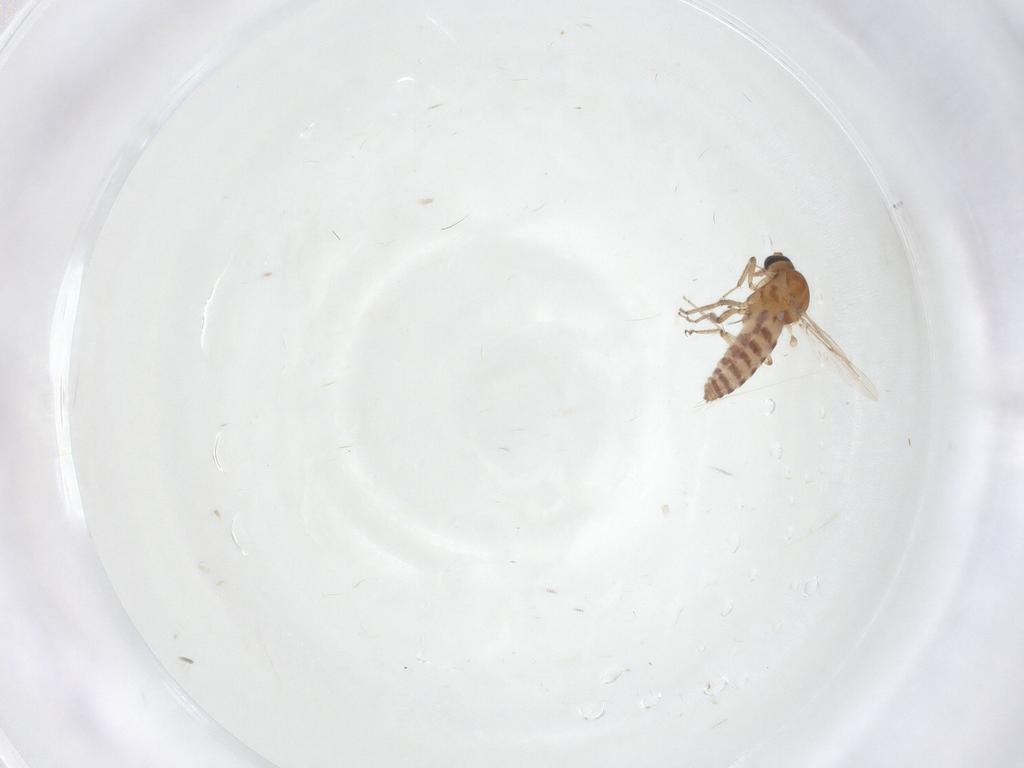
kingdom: Animalia
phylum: Arthropoda
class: Insecta
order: Diptera
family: Ceratopogonidae
